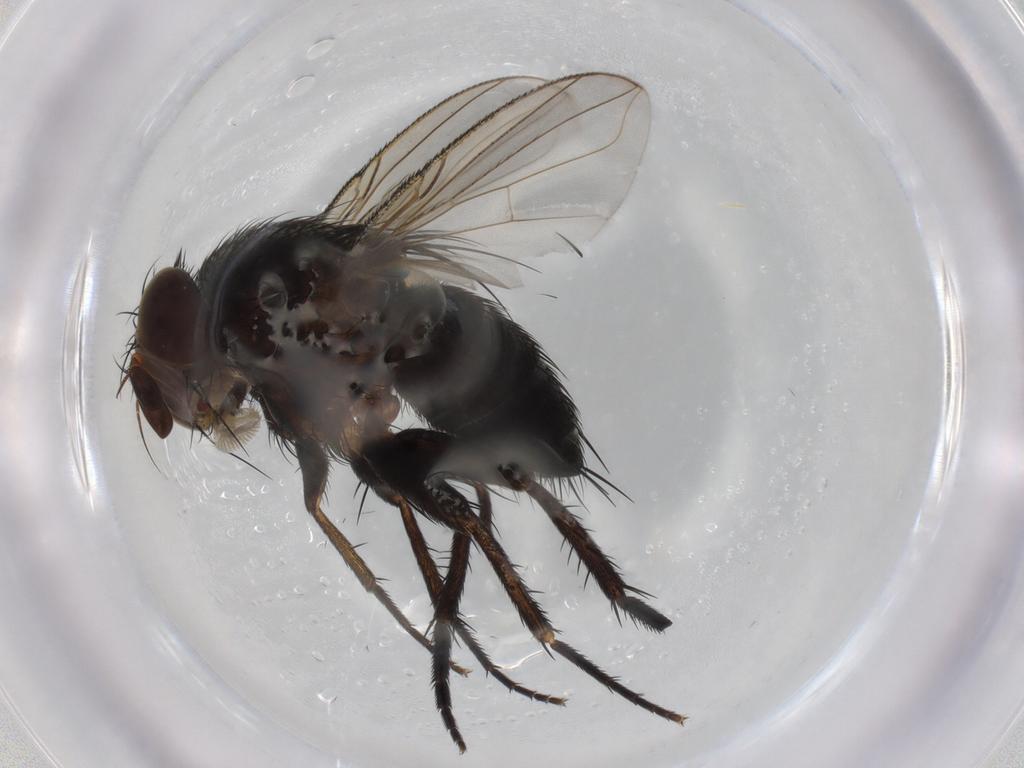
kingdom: Animalia
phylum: Arthropoda
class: Insecta
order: Diptera
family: Tachinidae
